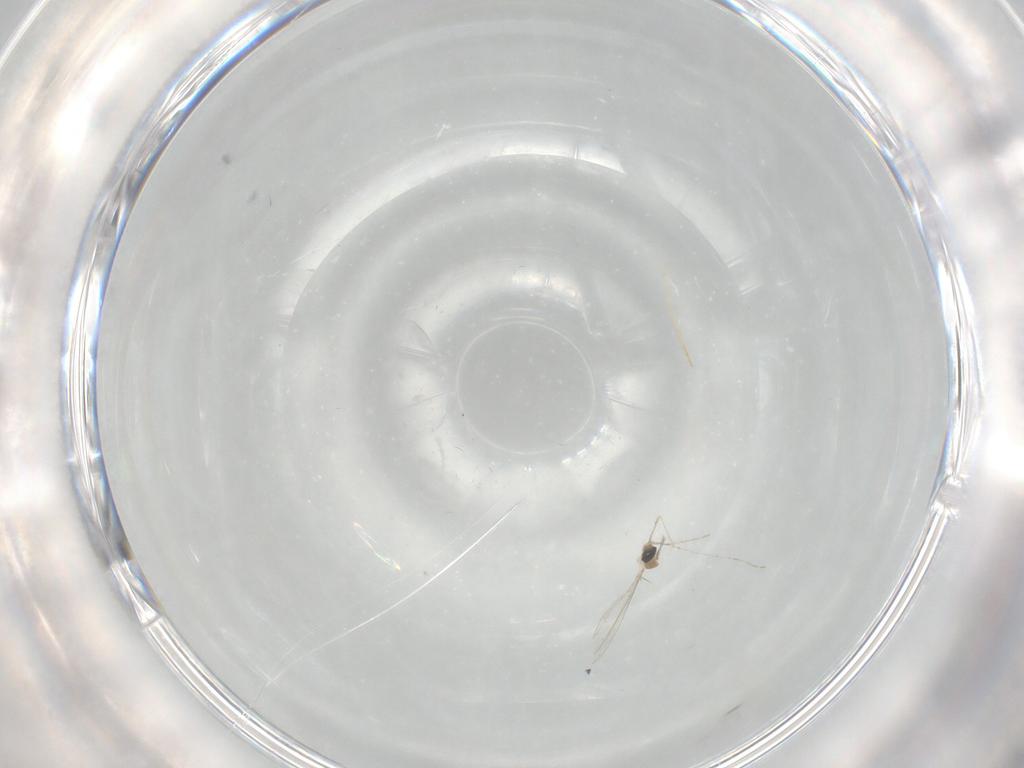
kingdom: Animalia
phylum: Arthropoda
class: Insecta
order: Diptera
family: Cecidomyiidae
